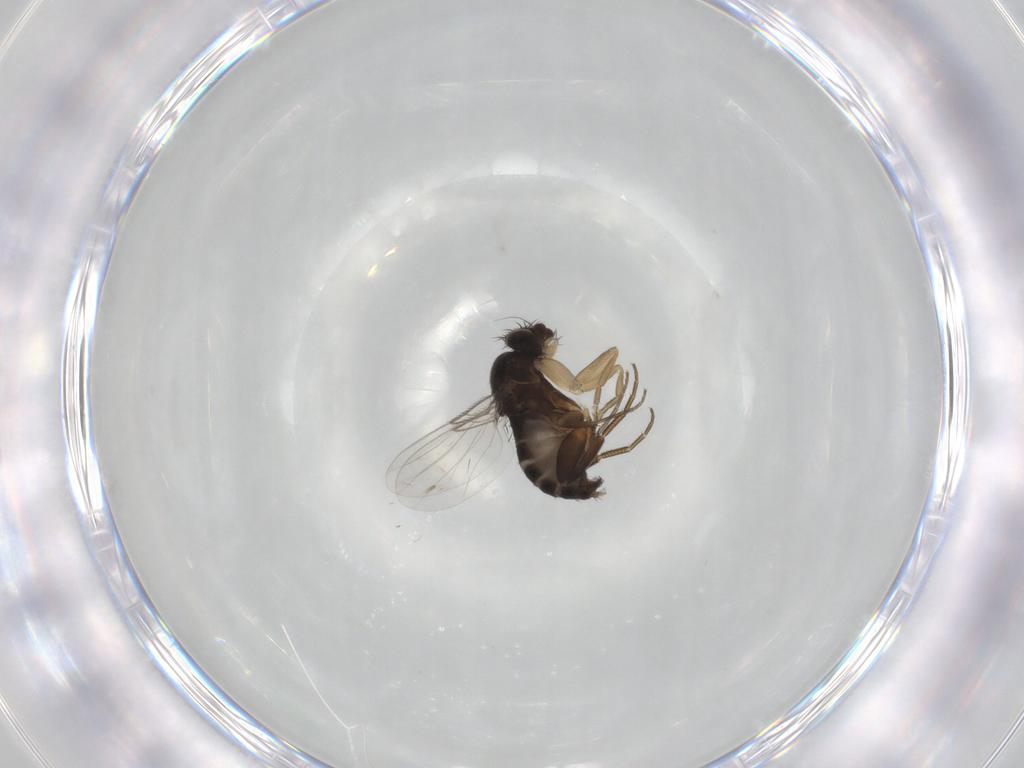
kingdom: Animalia
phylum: Arthropoda
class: Insecta
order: Diptera
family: Phoridae
